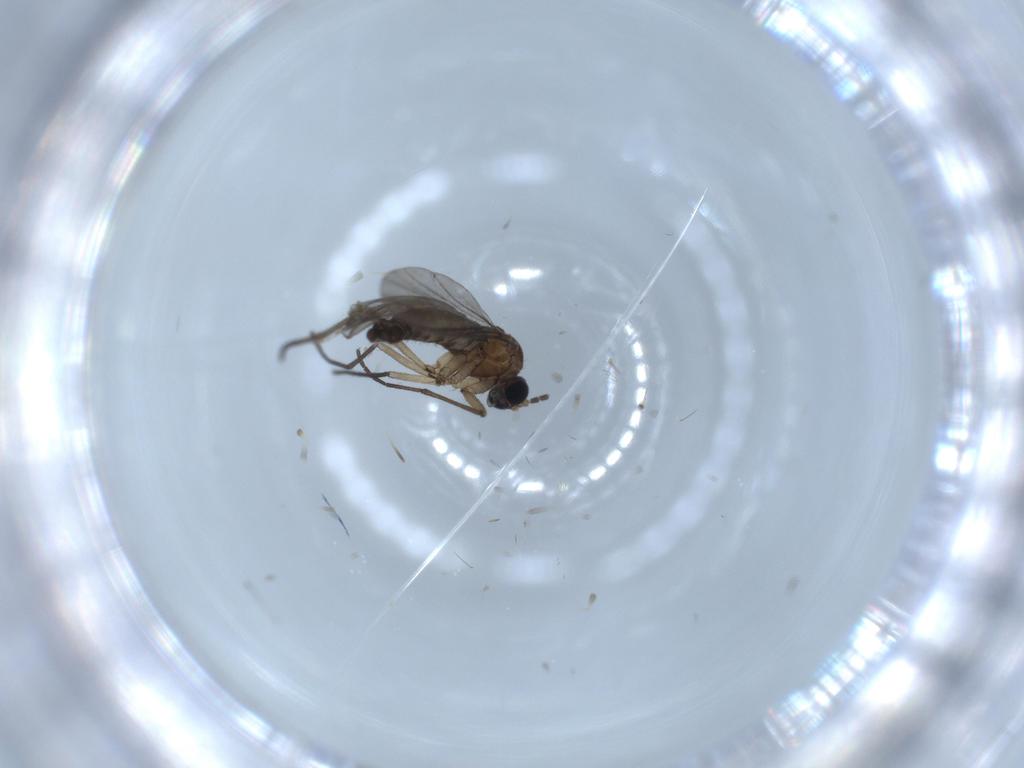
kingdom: Animalia
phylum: Arthropoda
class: Insecta
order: Diptera
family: Sciaridae
